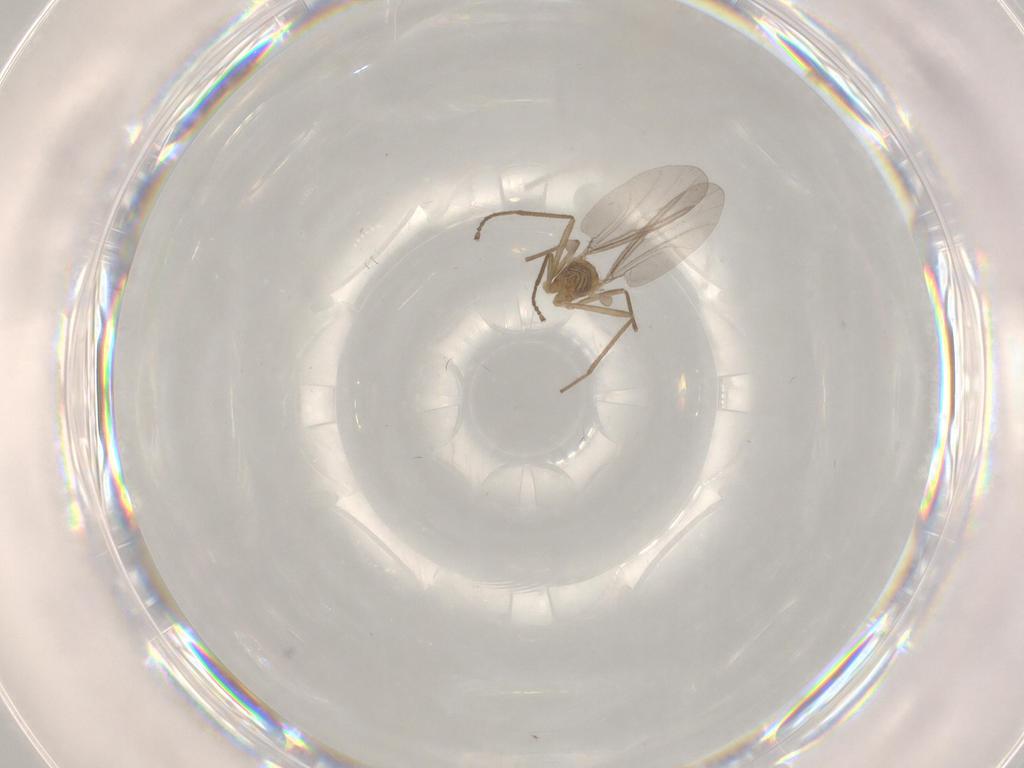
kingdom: Animalia
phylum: Arthropoda
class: Insecta
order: Diptera
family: Cecidomyiidae
